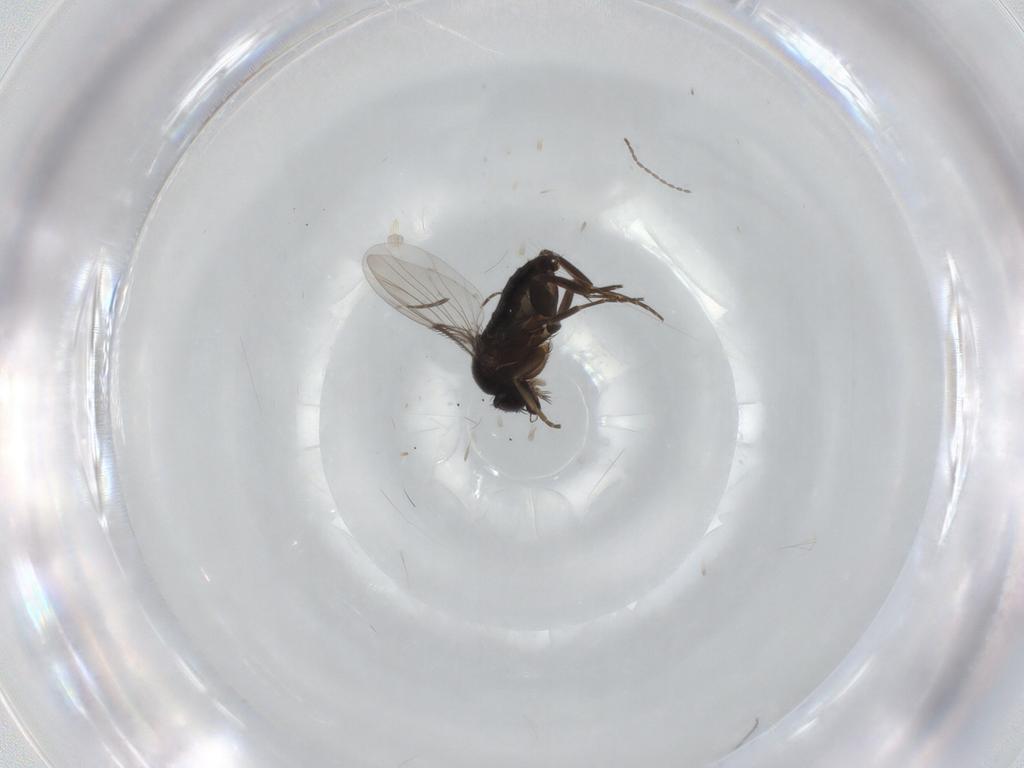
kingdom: Animalia
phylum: Arthropoda
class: Insecta
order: Diptera
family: Phoridae
